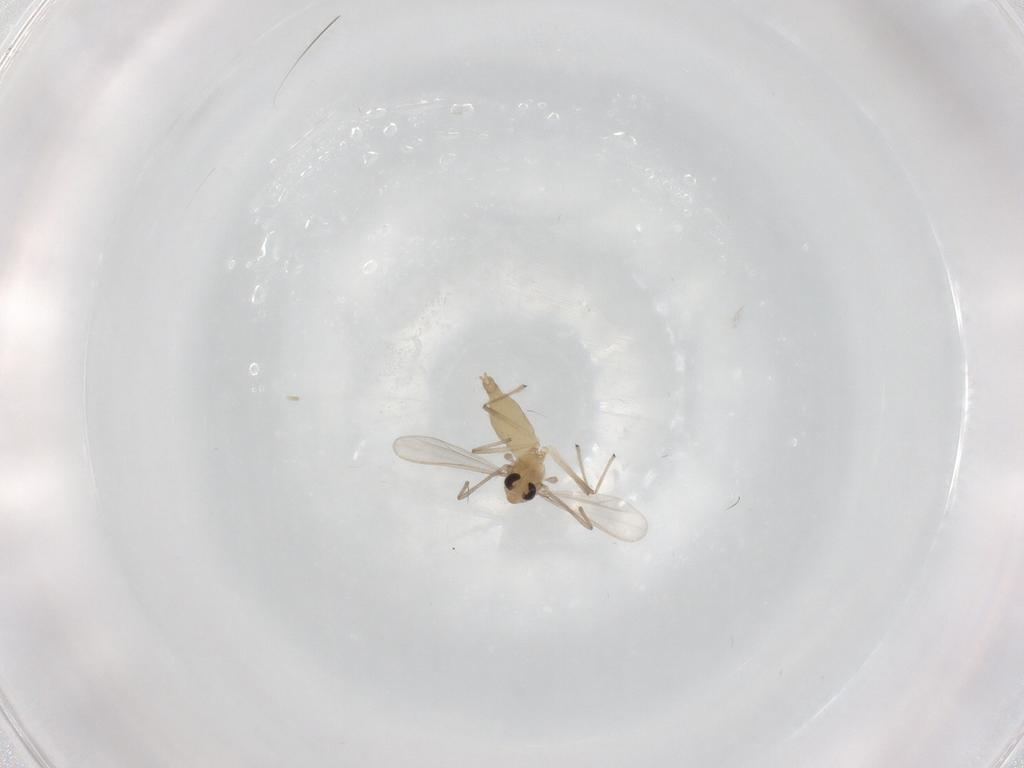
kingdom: Animalia
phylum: Arthropoda
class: Insecta
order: Diptera
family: Chironomidae
